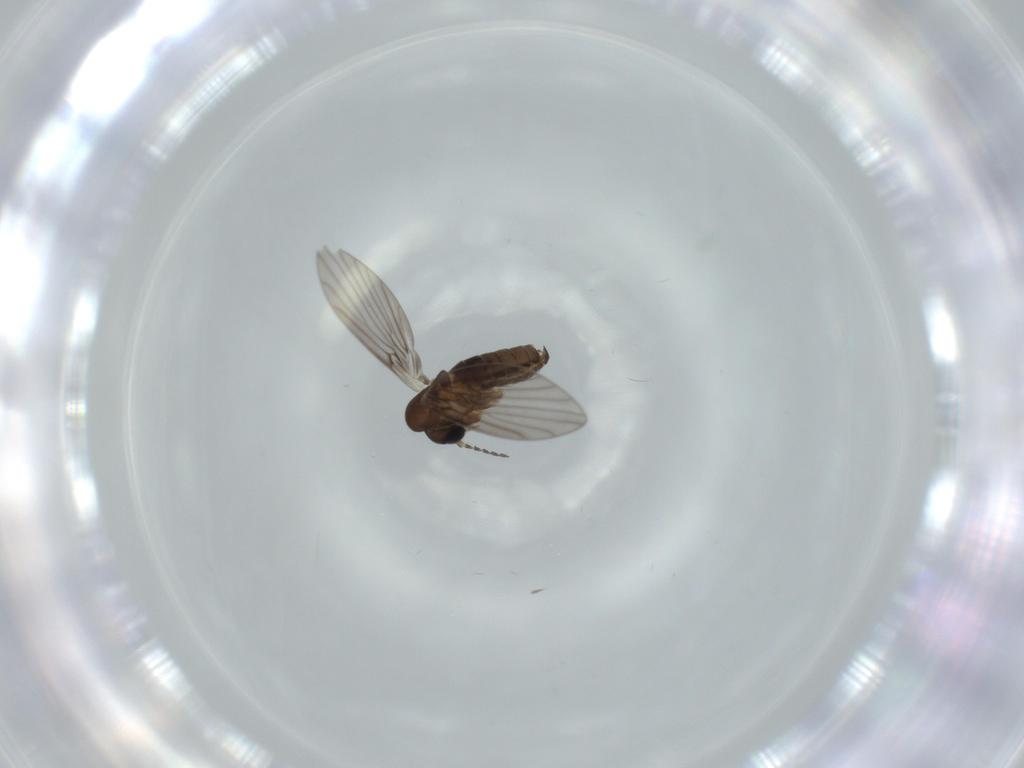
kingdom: Animalia
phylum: Arthropoda
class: Insecta
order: Diptera
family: Psychodidae
